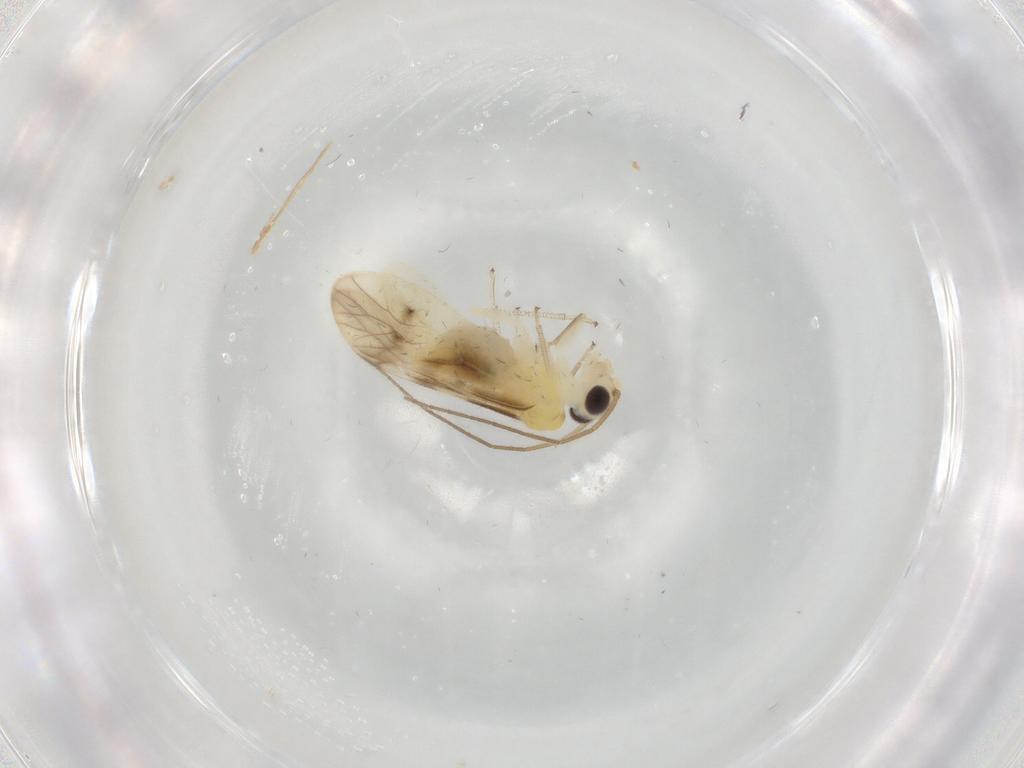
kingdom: Animalia
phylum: Arthropoda
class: Insecta
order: Psocodea
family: Caeciliusidae
